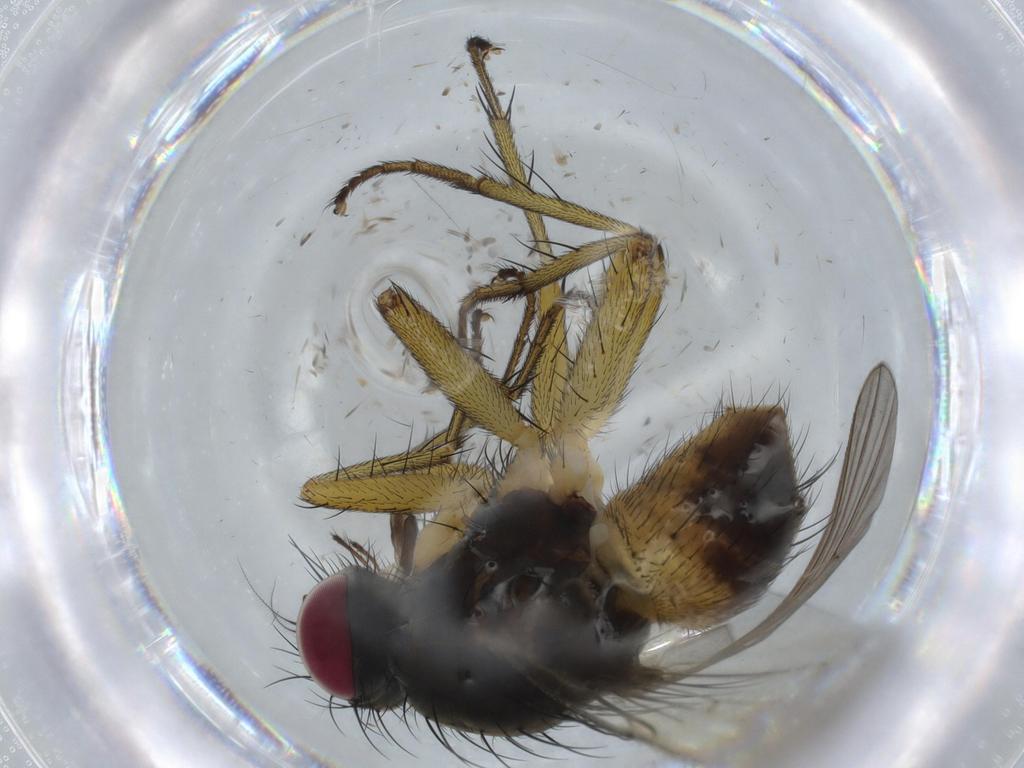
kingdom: Animalia
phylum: Arthropoda
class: Insecta
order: Diptera
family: Muscidae
